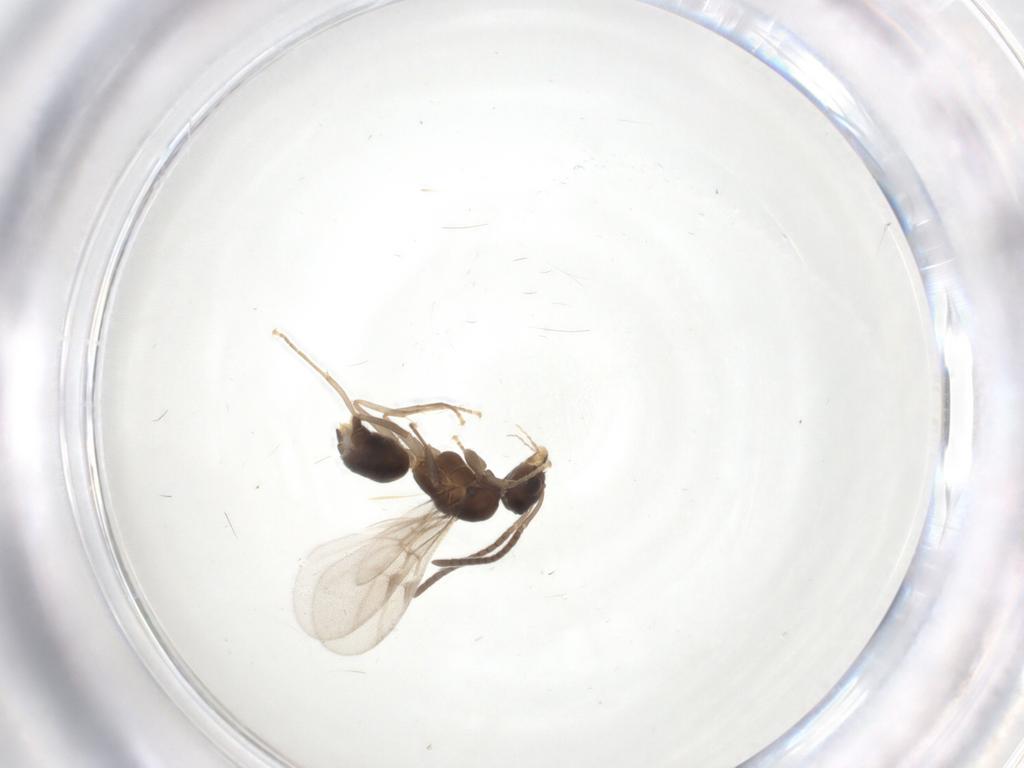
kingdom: Animalia
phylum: Arthropoda
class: Insecta
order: Hymenoptera
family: Formicidae
